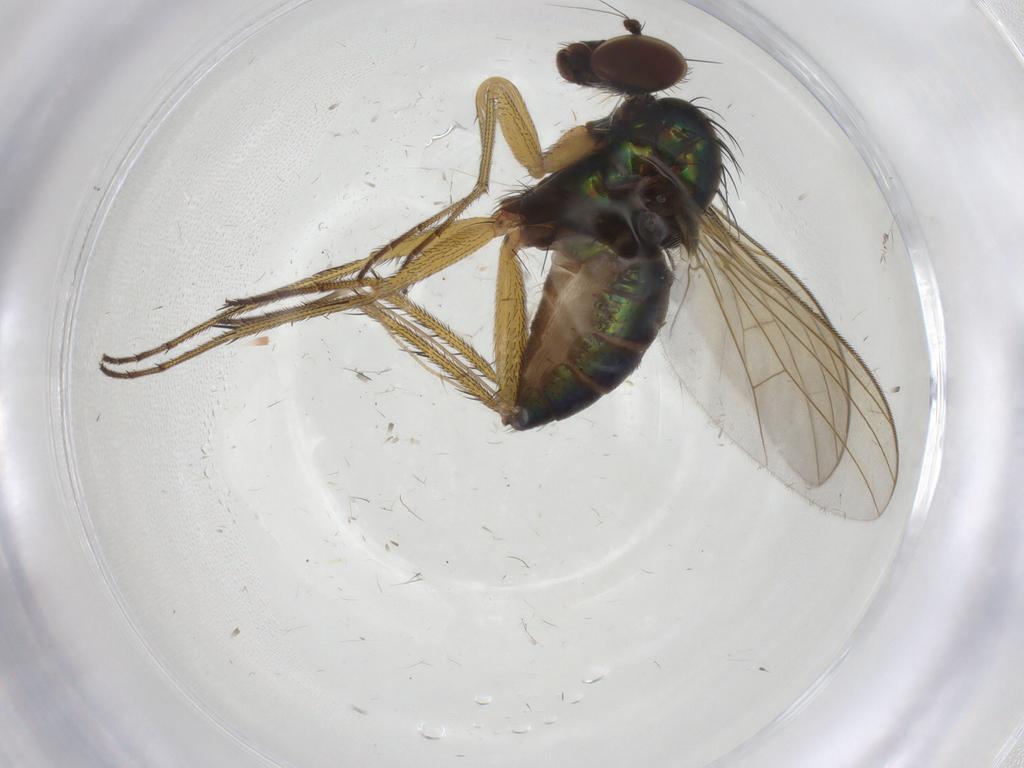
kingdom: Animalia
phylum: Arthropoda
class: Insecta
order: Diptera
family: Dolichopodidae
